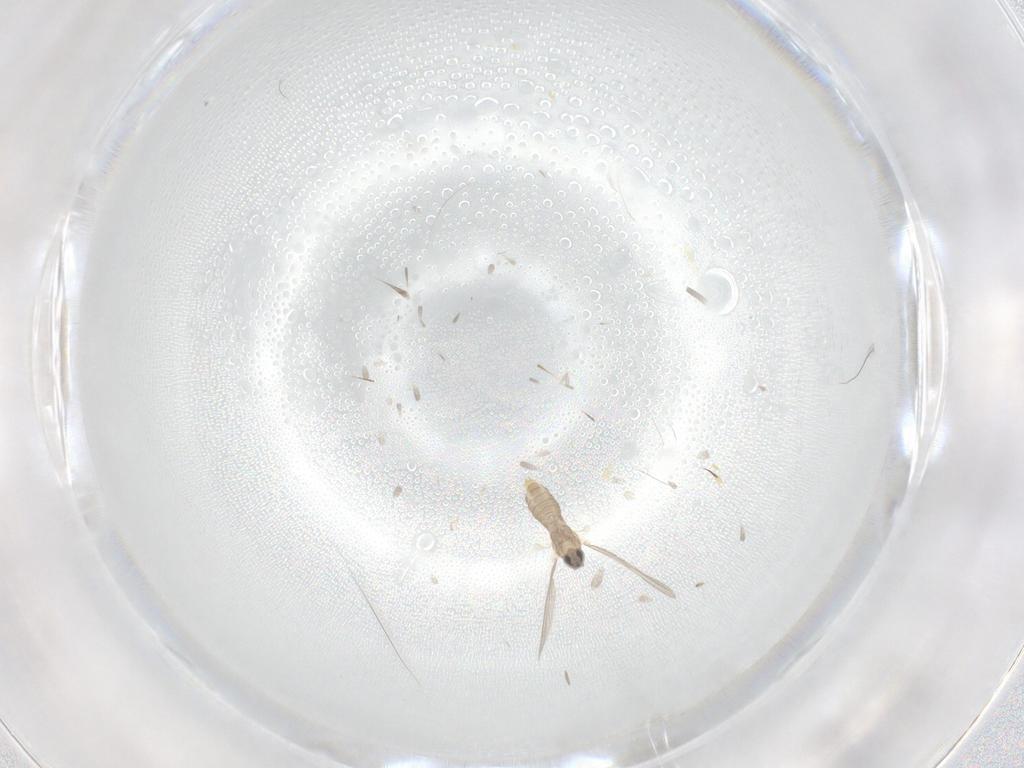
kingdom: Animalia
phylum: Arthropoda
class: Insecta
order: Diptera
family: Cecidomyiidae
